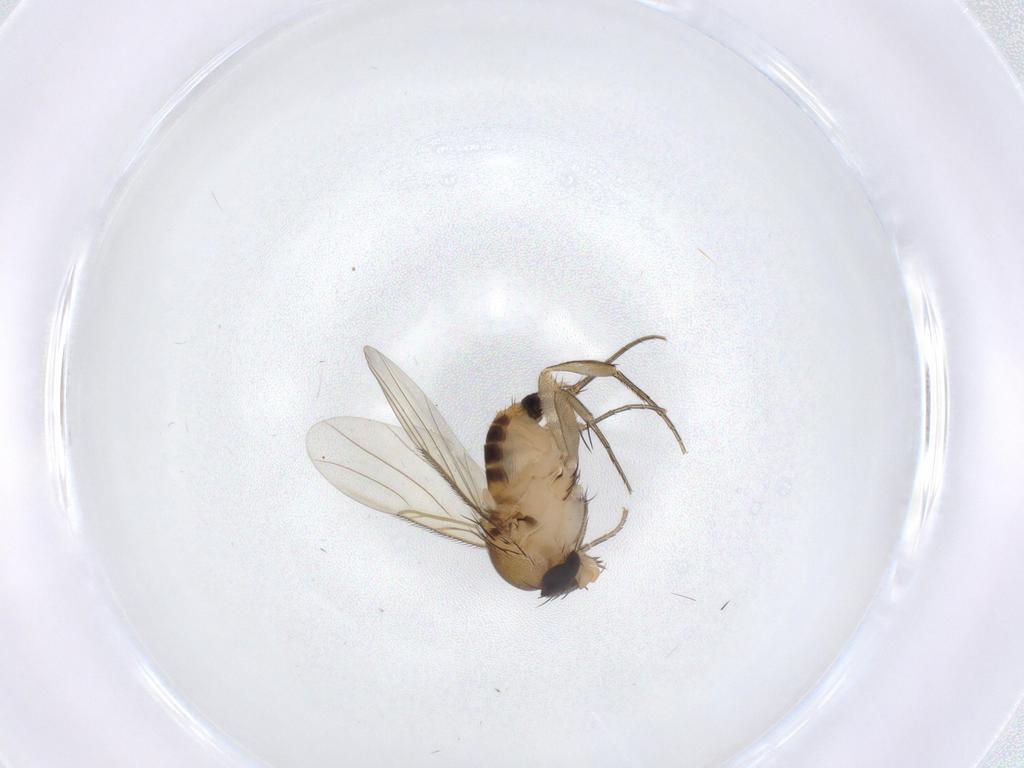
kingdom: Animalia
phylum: Arthropoda
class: Insecta
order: Diptera
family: Phoridae
